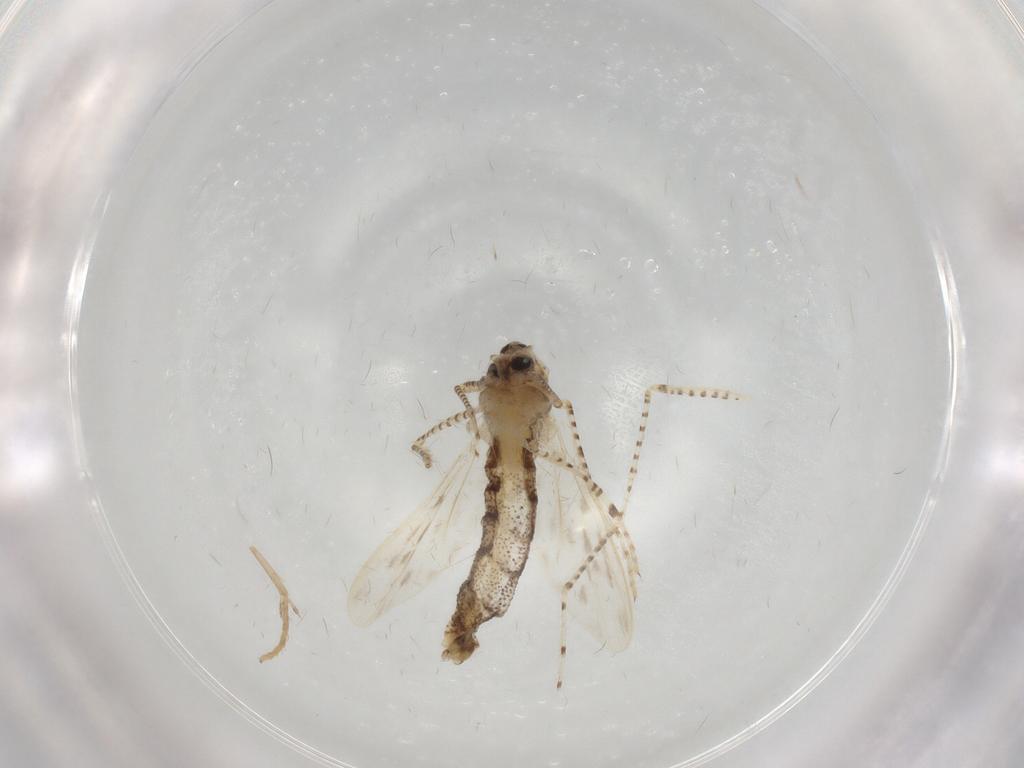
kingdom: Animalia
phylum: Arthropoda
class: Insecta
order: Diptera
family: Chaoboridae
